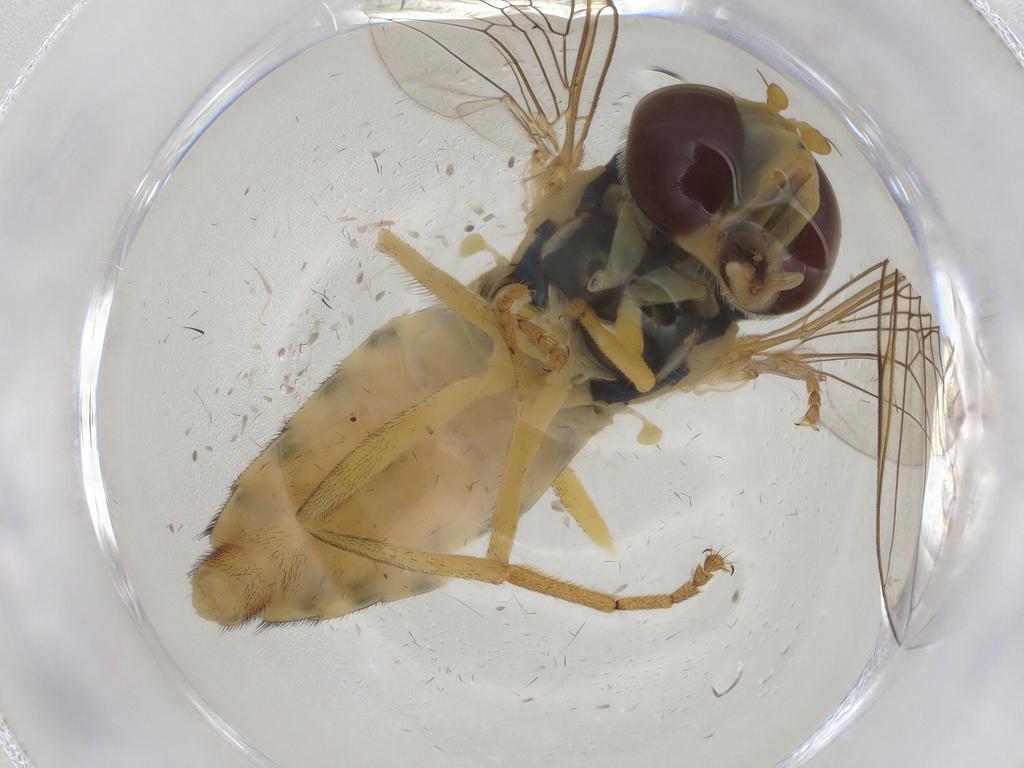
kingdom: Animalia
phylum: Arthropoda
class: Insecta
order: Diptera
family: Syrphidae
